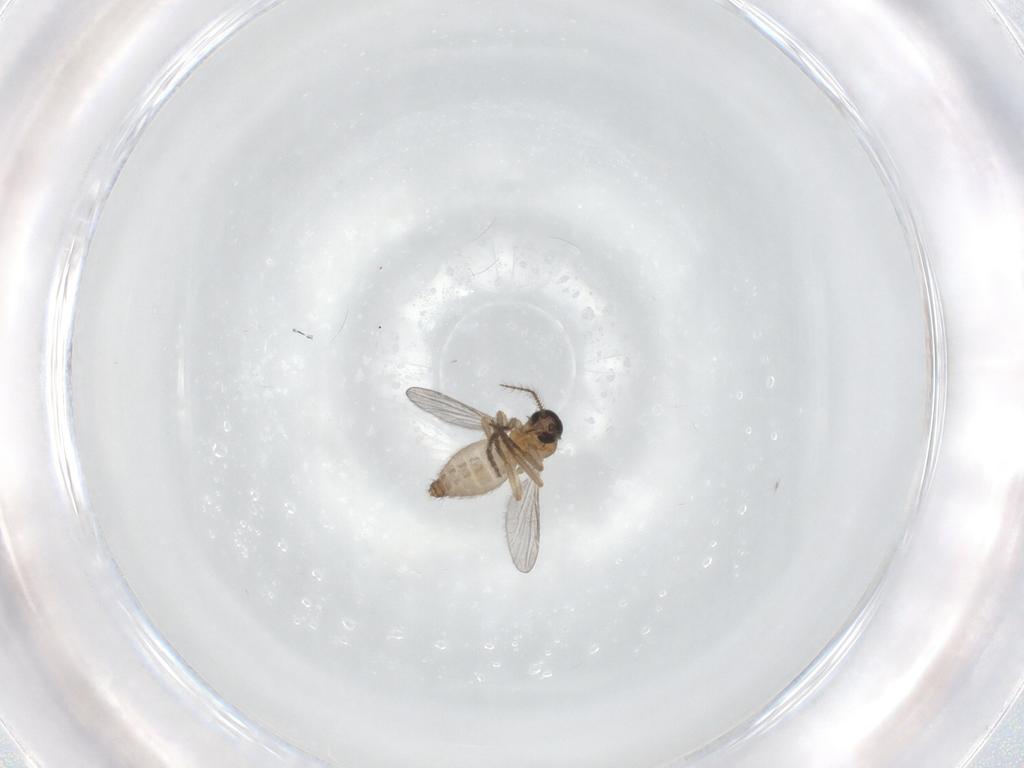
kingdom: Animalia
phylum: Arthropoda
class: Insecta
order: Diptera
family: Ceratopogonidae
